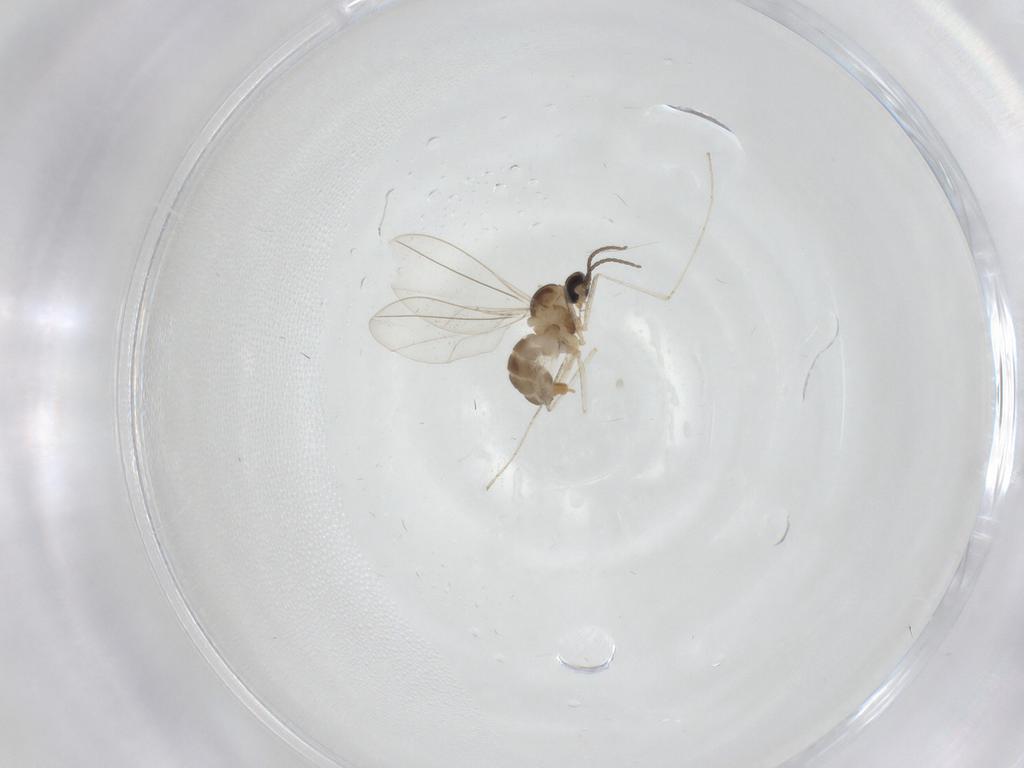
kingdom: Animalia
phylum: Arthropoda
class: Insecta
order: Diptera
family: Cecidomyiidae
